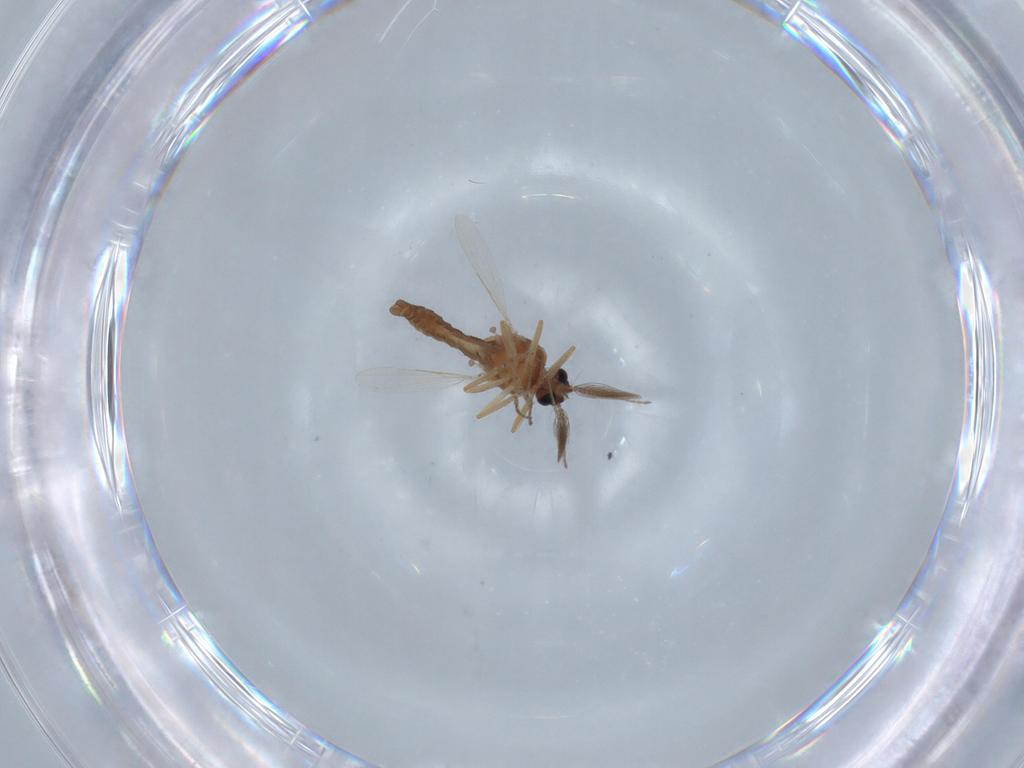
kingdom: Animalia
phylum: Arthropoda
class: Insecta
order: Diptera
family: Ceratopogonidae
